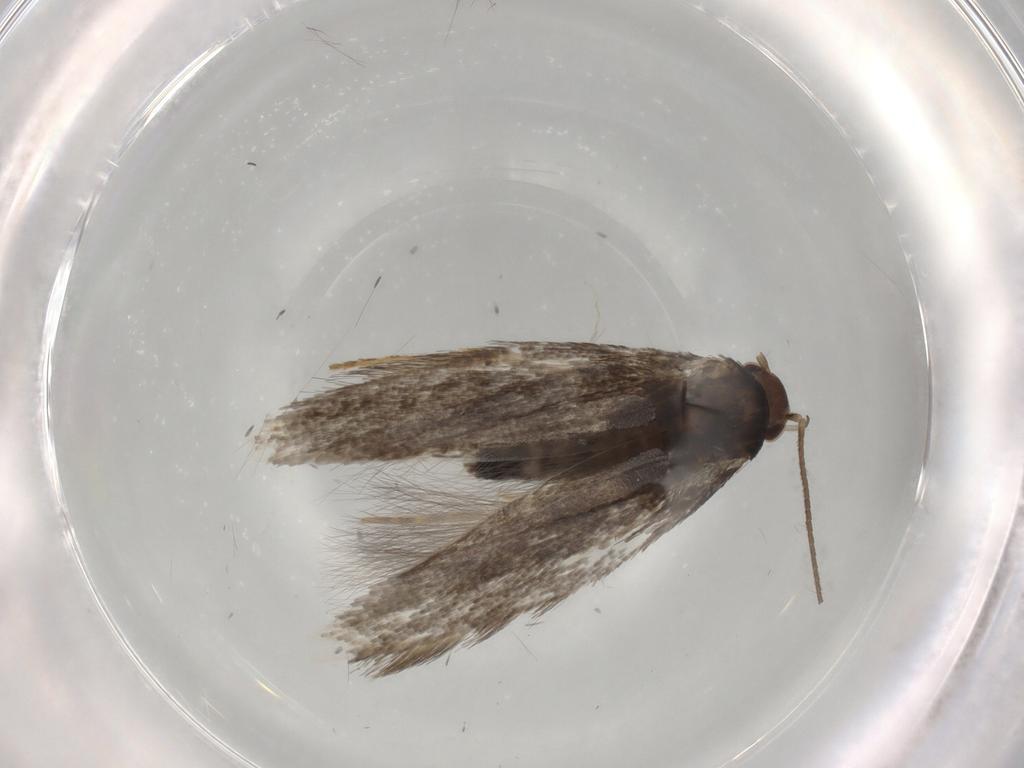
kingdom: Animalia
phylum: Arthropoda
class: Insecta
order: Lepidoptera
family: Elachistidae
